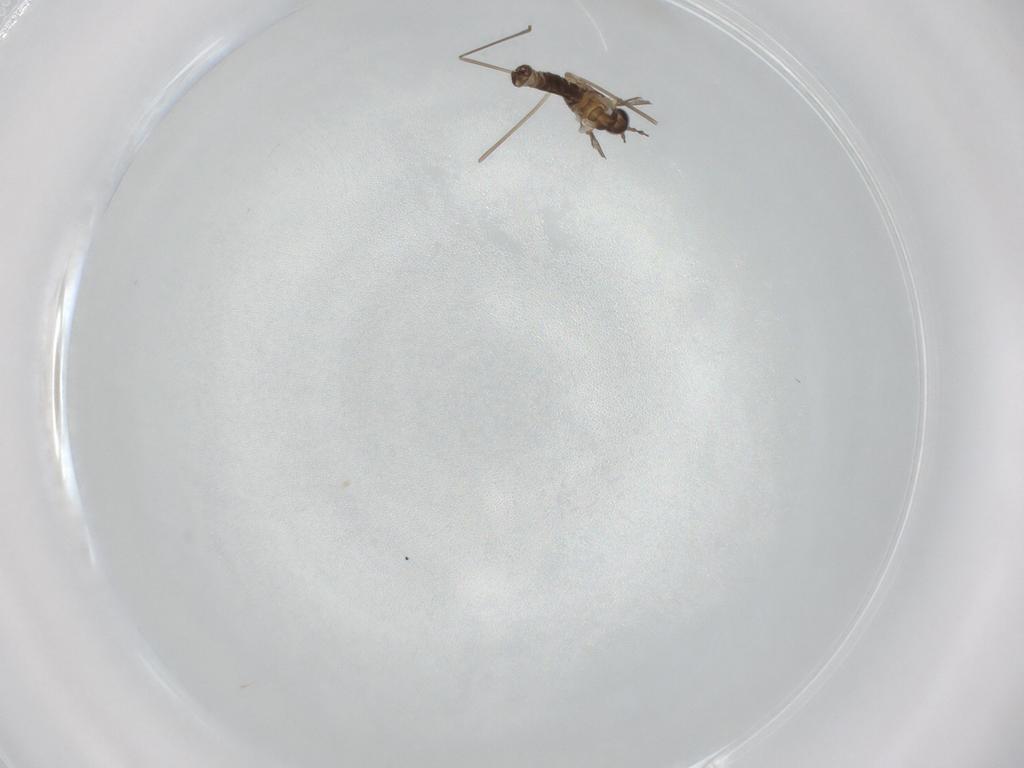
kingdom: Animalia
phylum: Arthropoda
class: Insecta
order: Diptera
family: Cecidomyiidae
